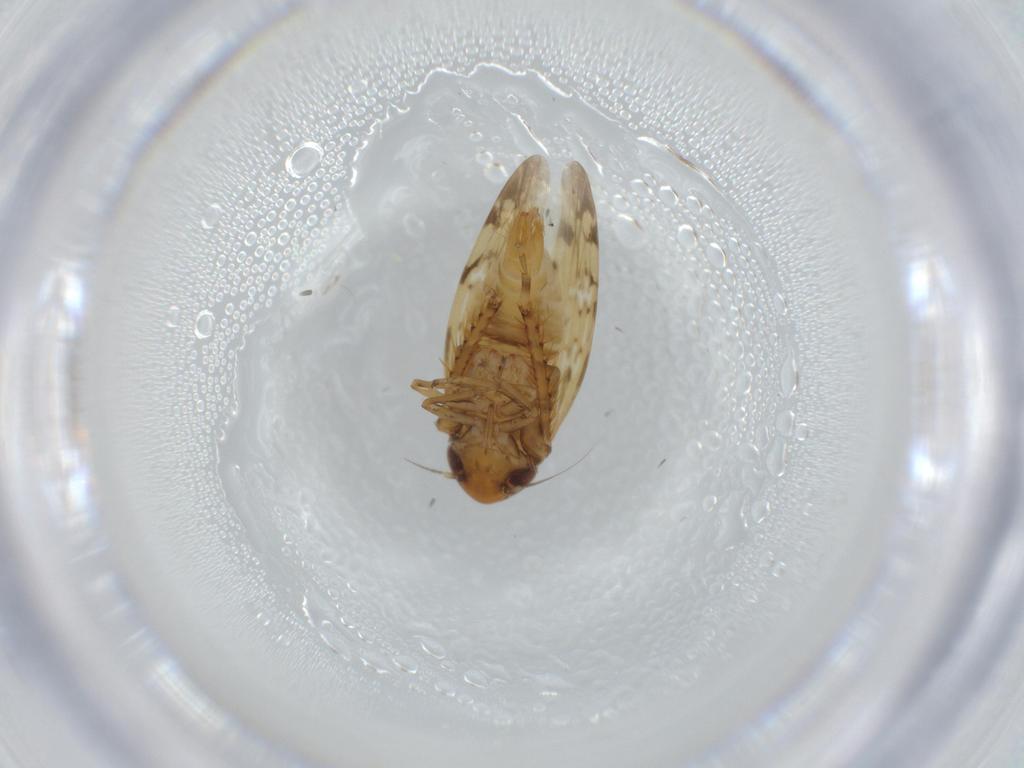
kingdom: Animalia
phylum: Arthropoda
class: Insecta
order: Hemiptera
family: Cicadellidae
